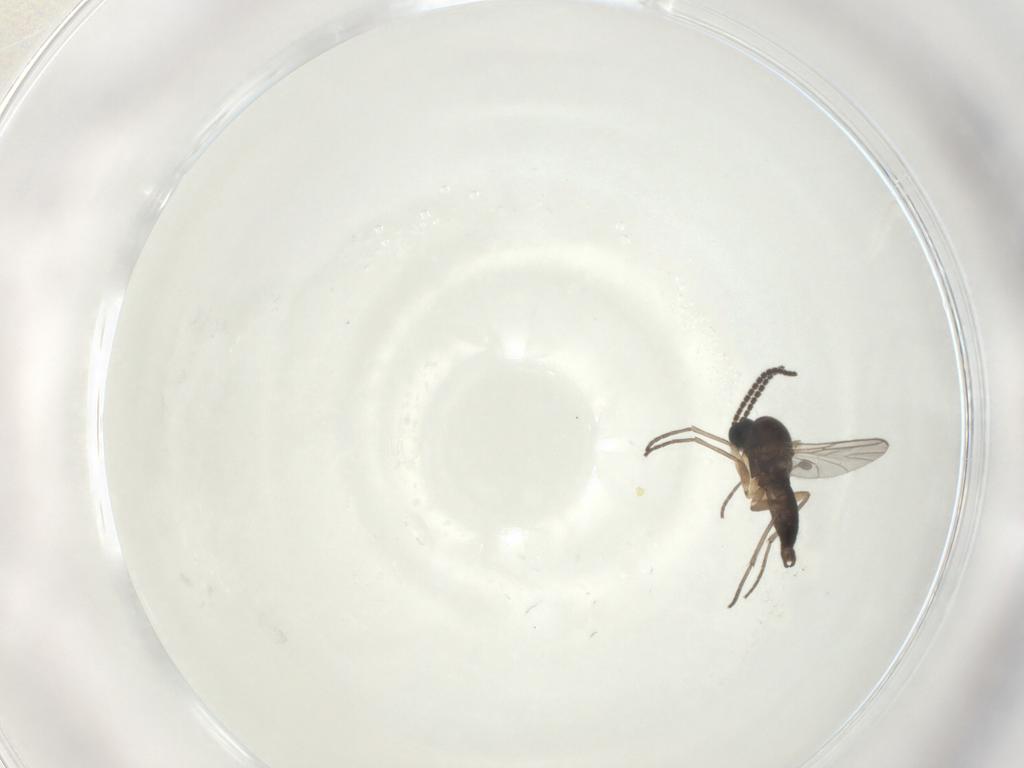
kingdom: Animalia
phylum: Arthropoda
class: Insecta
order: Diptera
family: Sciaridae
